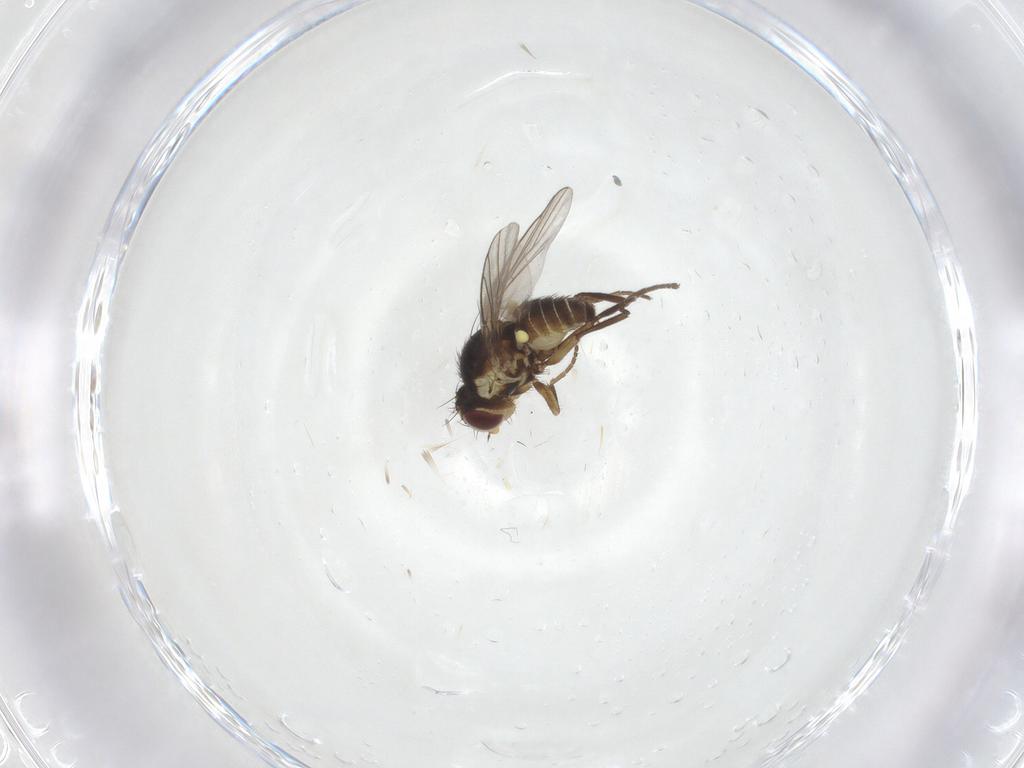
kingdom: Animalia
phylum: Arthropoda
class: Insecta
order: Diptera
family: Agromyzidae
